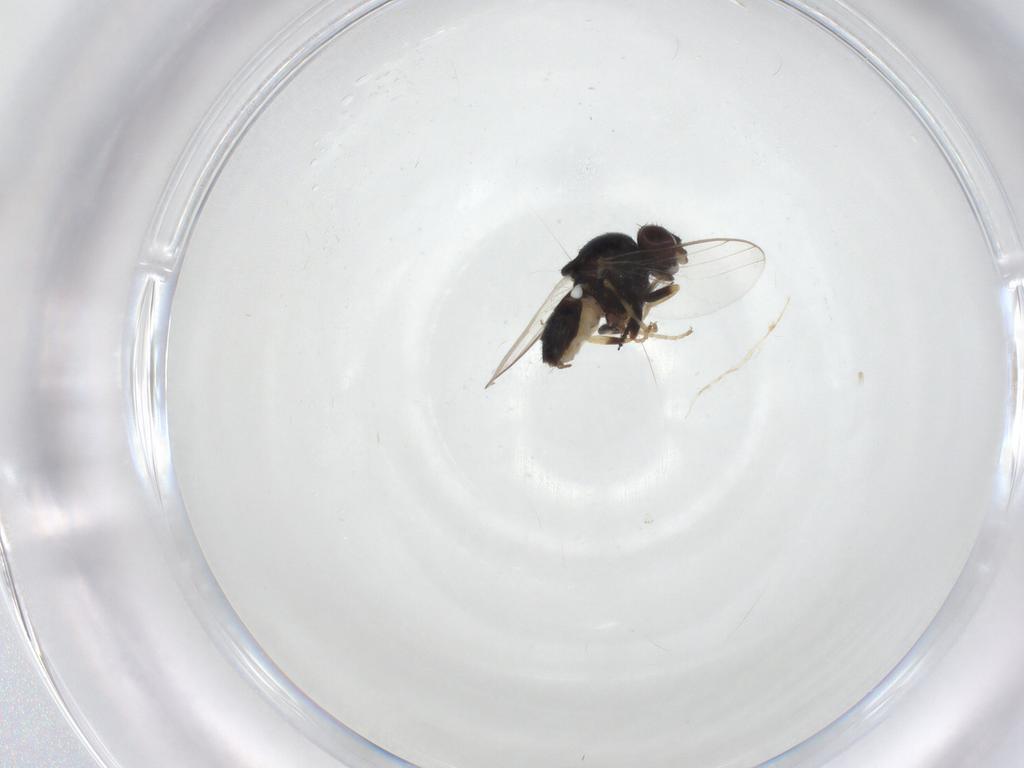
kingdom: Animalia
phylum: Arthropoda
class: Insecta
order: Diptera
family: Chloropidae
